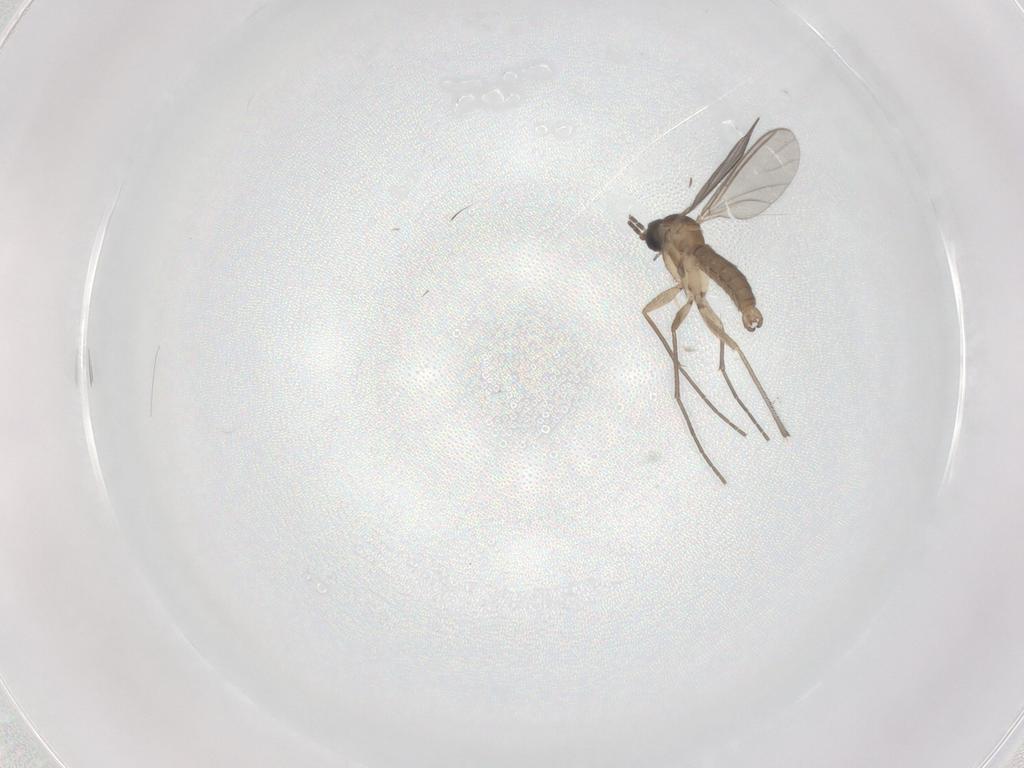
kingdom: Animalia
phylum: Arthropoda
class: Insecta
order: Diptera
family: Sciaridae
